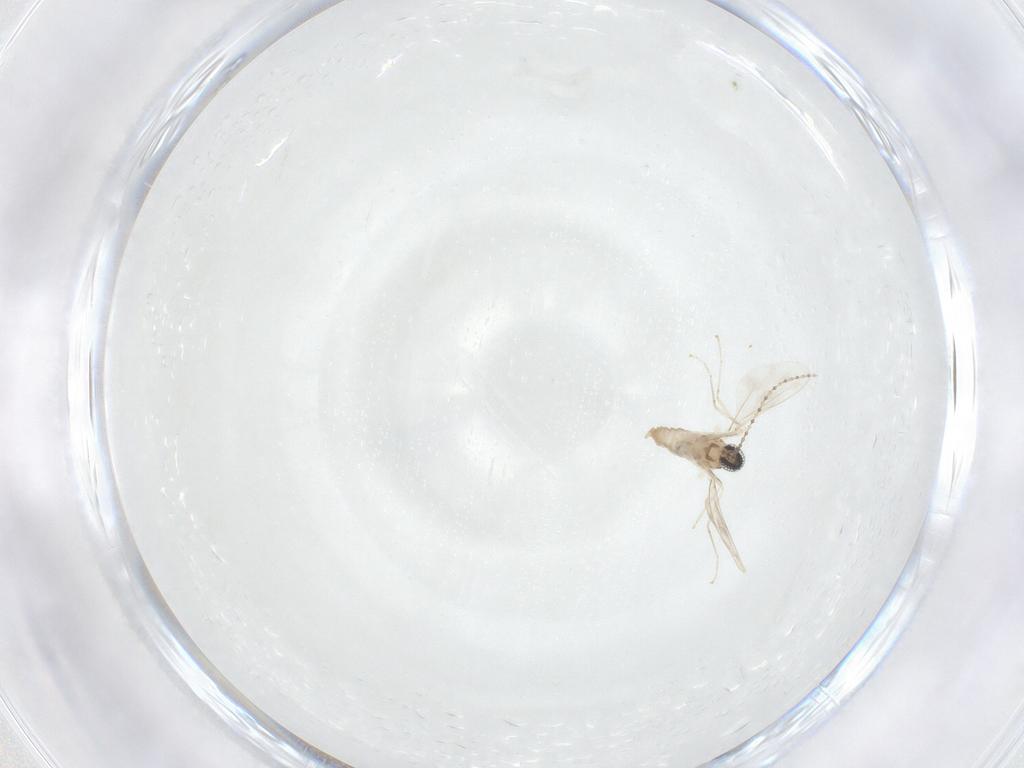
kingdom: Animalia
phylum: Arthropoda
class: Insecta
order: Diptera
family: Cecidomyiidae
